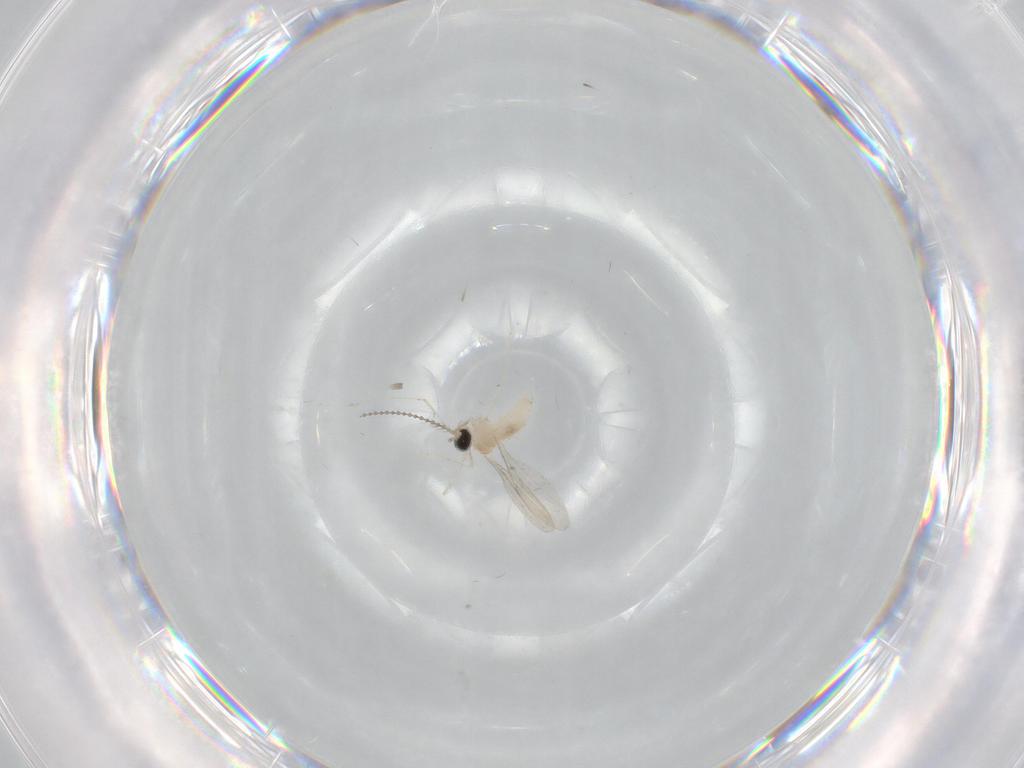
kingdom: Animalia
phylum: Arthropoda
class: Insecta
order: Diptera
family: Cecidomyiidae
